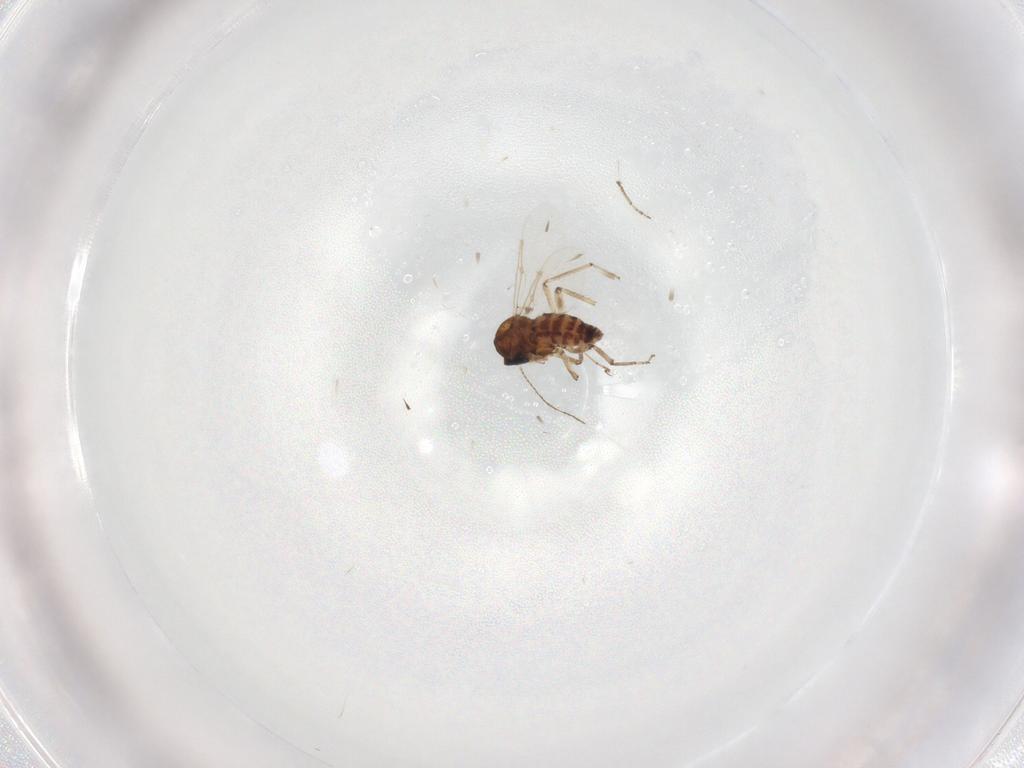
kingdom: Animalia
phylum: Arthropoda
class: Insecta
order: Diptera
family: Ceratopogonidae
